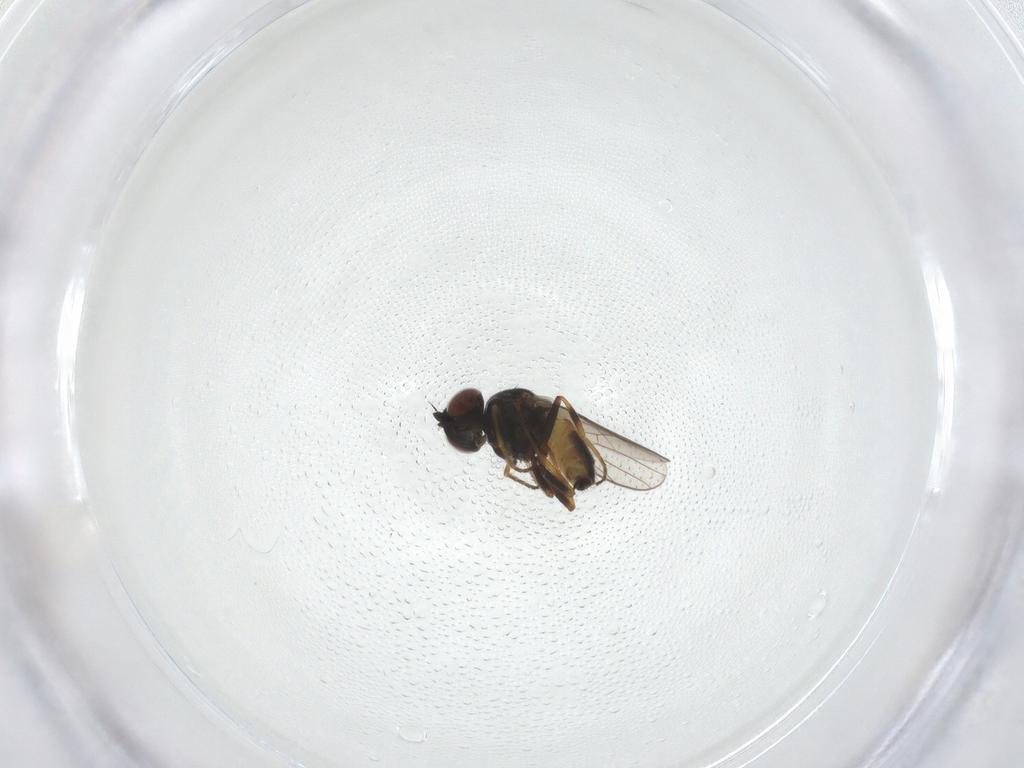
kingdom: Animalia
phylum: Arthropoda
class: Insecta
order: Diptera
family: Chloropidae
